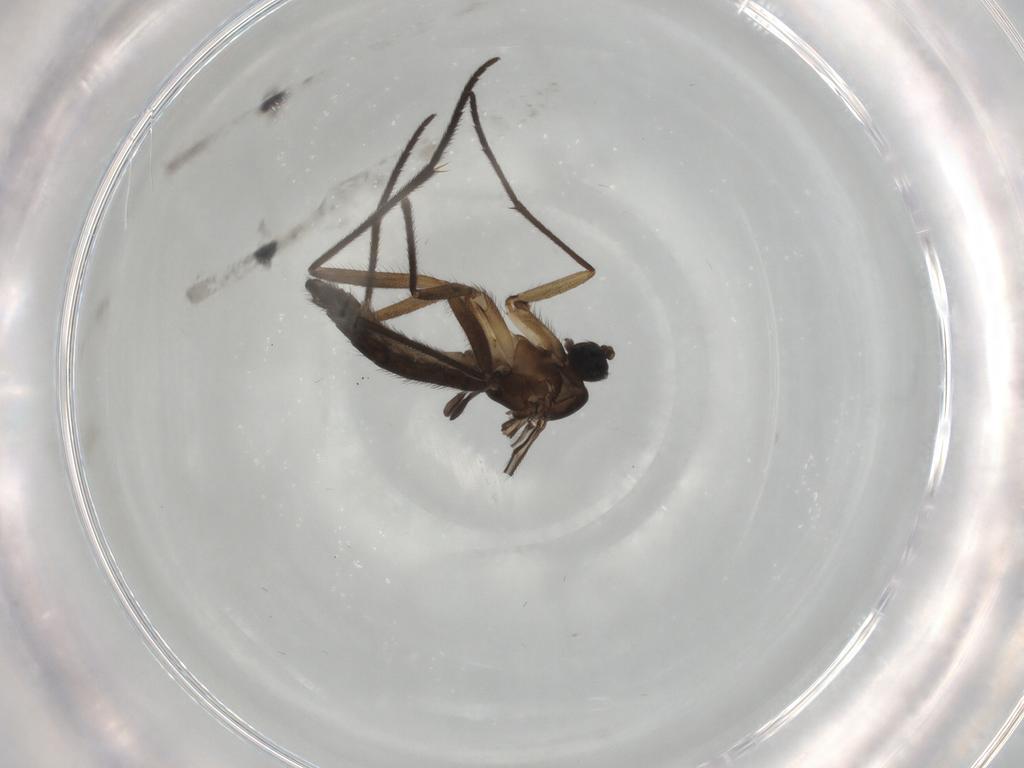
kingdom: Animalia
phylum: Arthropoda
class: Insecta
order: Diptera
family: Sciaridae
